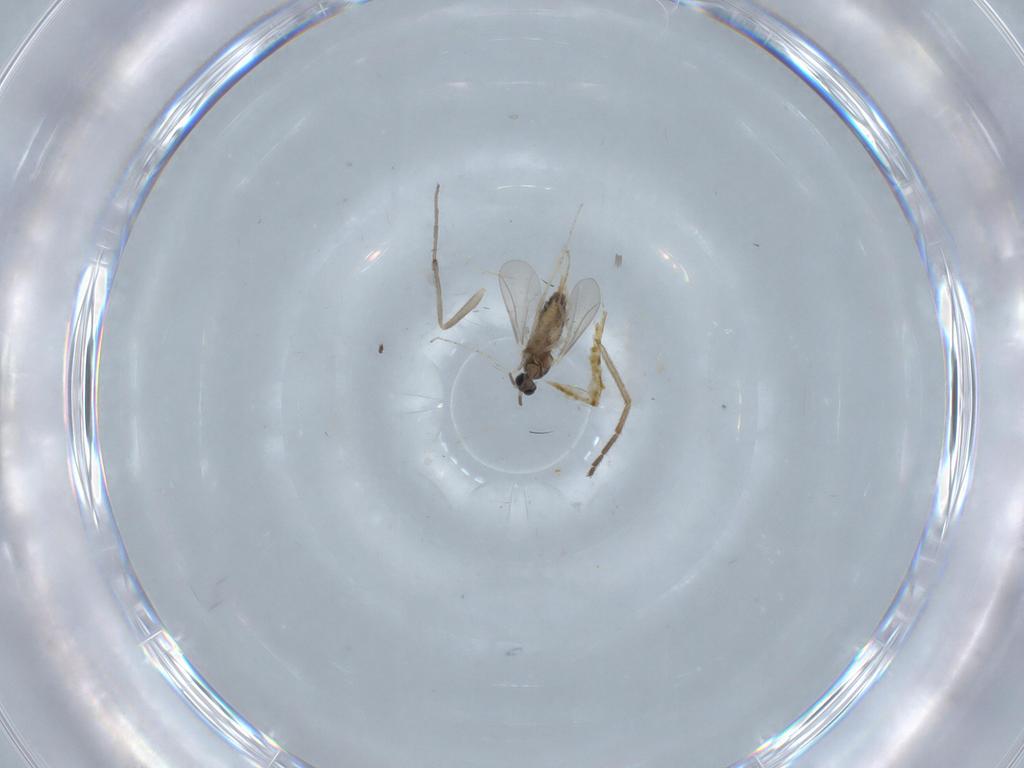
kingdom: Animalia
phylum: Arthropoda
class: Insecta
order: Diptera
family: Cecidomyiidae
